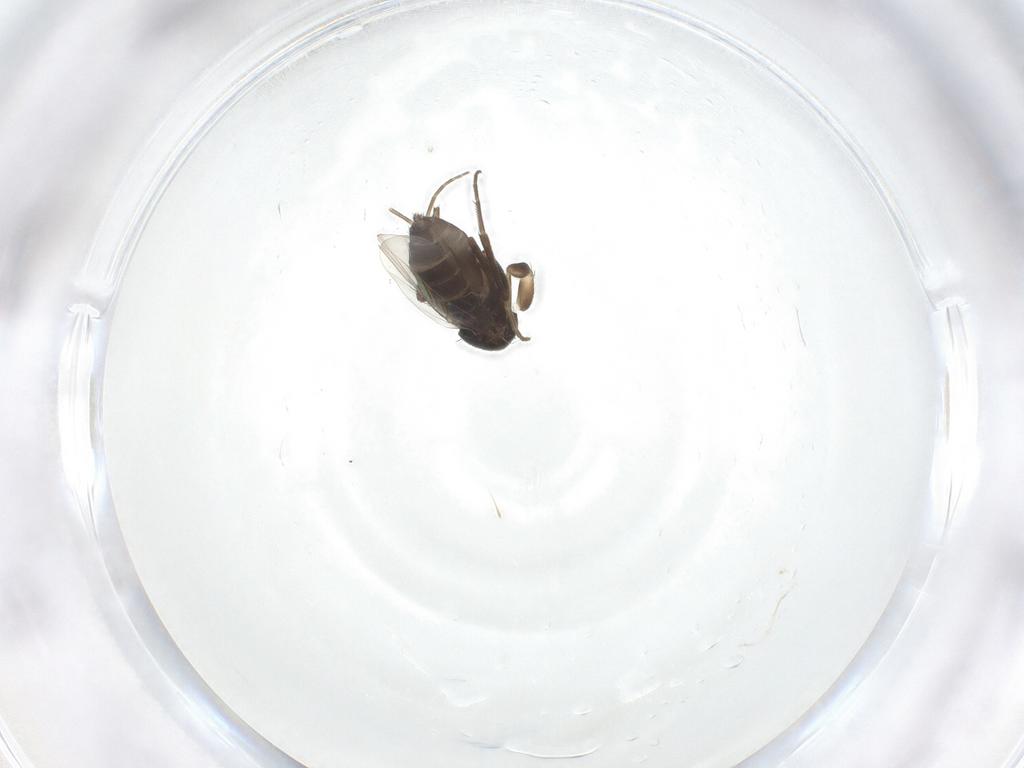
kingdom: Animalia
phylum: Arthropoda
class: Insecta
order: Diptera
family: Phoridae
